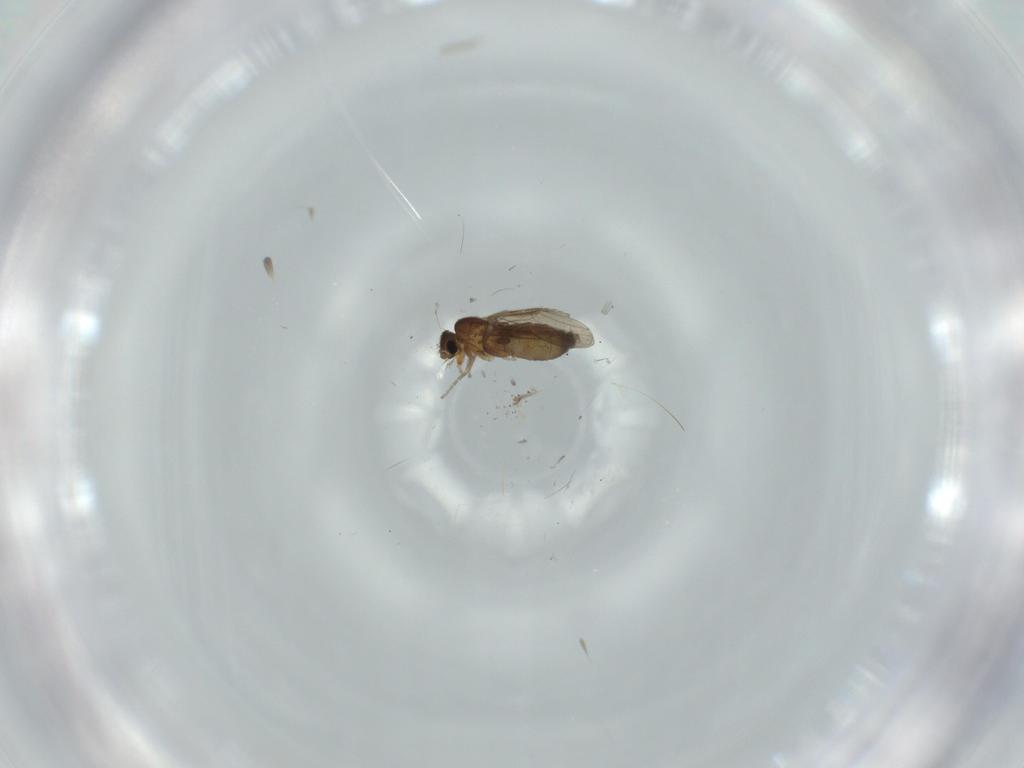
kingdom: Animalia
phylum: Arthropoda
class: Insecta
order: Diptera
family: Phoridae
